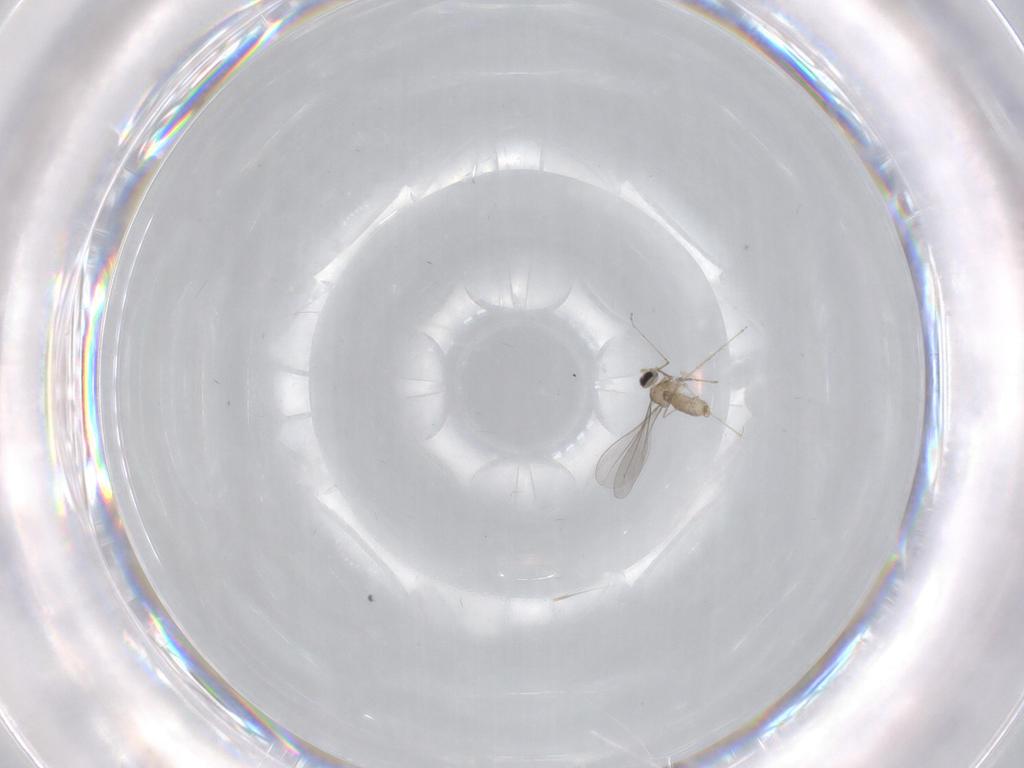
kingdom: Animalia
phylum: Arthropoda
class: Insecta
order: Diptera
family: Cecidomyiidae
